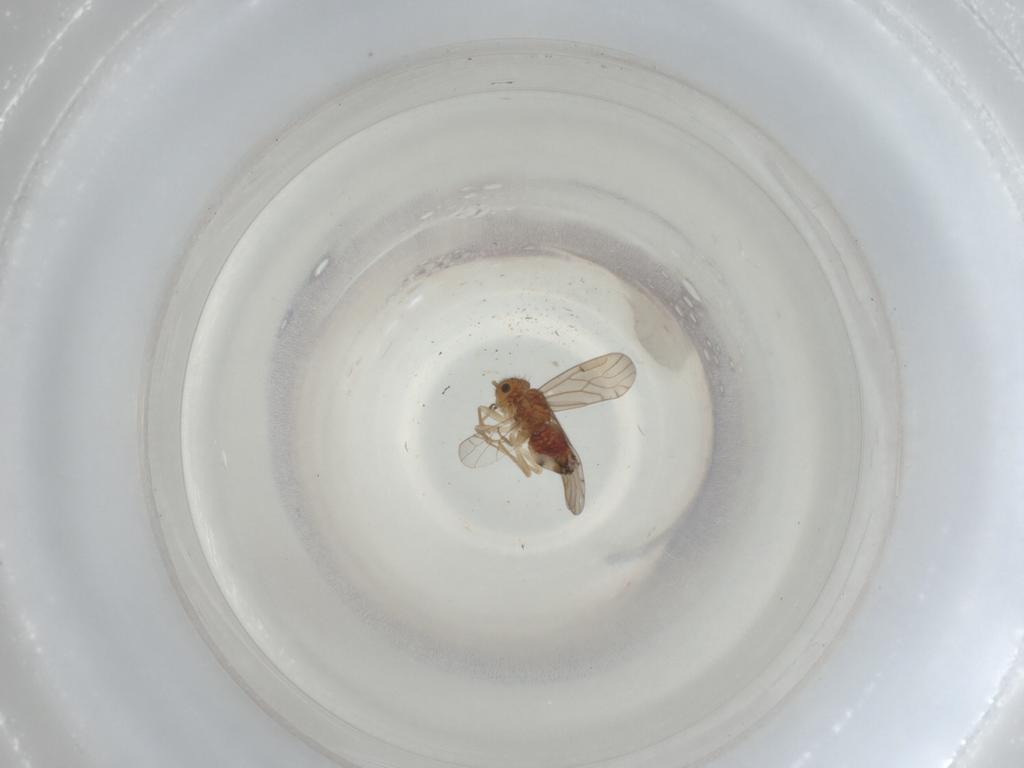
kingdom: Animalia
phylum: Arthropoda
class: Insecta
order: Psocodea
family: Ectopsocidae
